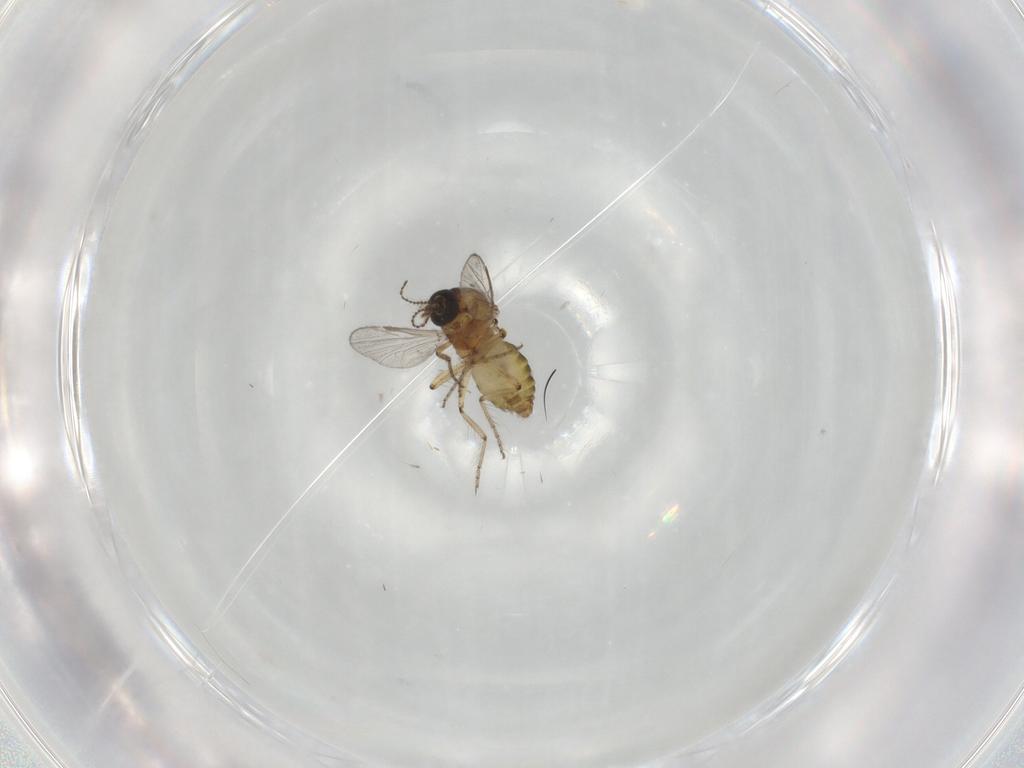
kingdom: Animalia
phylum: Arthropoda
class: Insecta
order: Diptera
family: Ceratopogonidae
